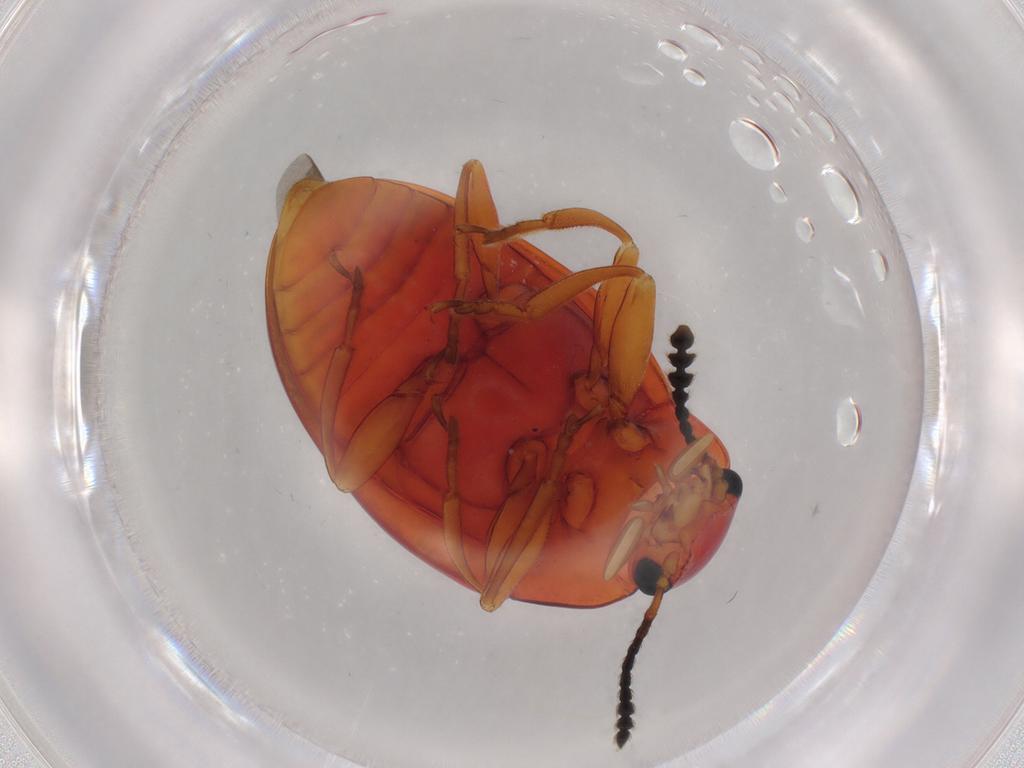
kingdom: Animalia
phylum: Arthropoda
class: Insecta
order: Coleoptera
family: Erotylidae
